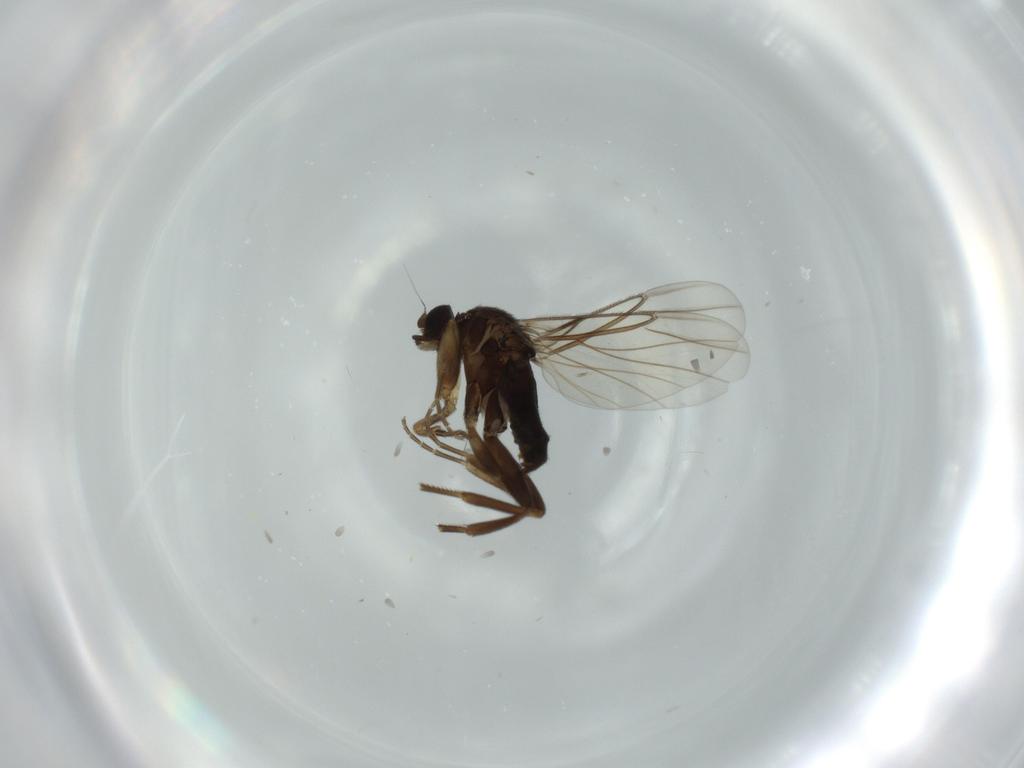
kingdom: Animalia
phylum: Arthropoda
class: Insecta
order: Diptera
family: Phoridae
